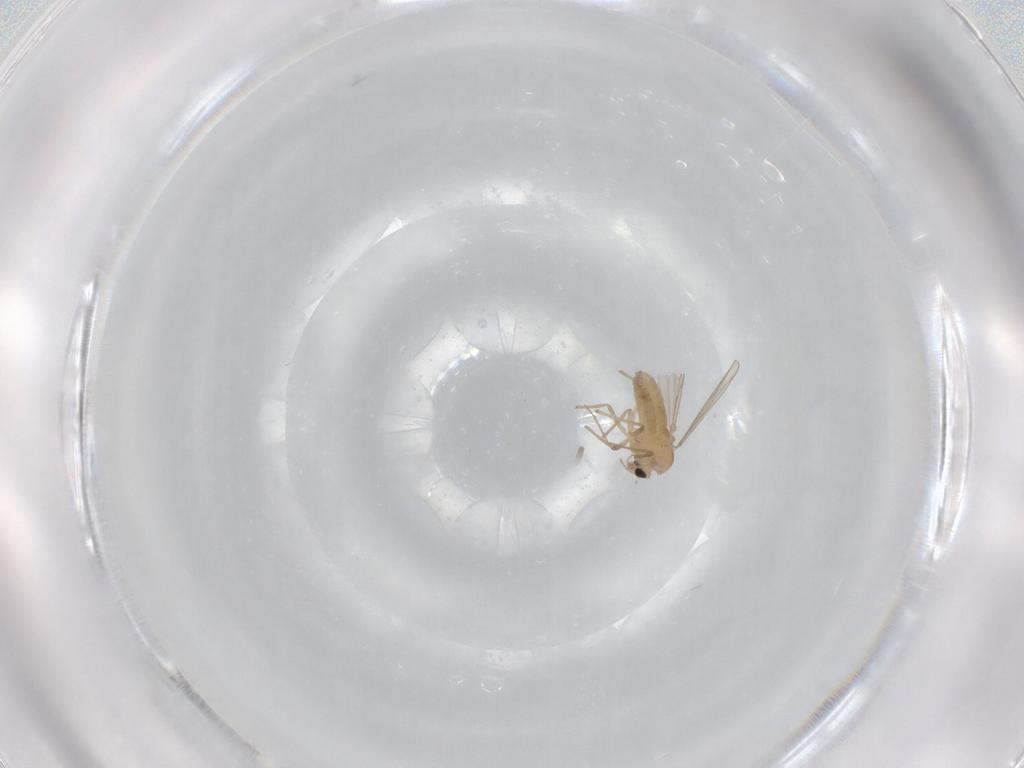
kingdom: Animalia
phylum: Arthropoda
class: Insecta
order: Diptera
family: Chironomidae
